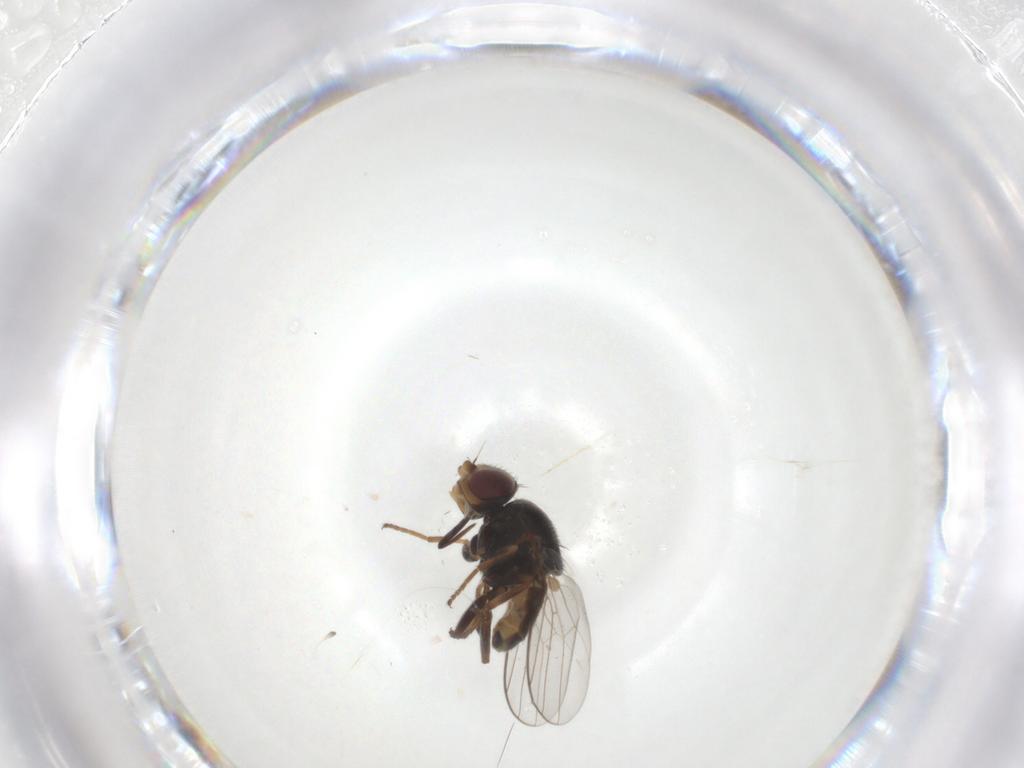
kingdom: Animalia
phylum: Arthropoda
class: Insecta
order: Diptera
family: Chloropidae
